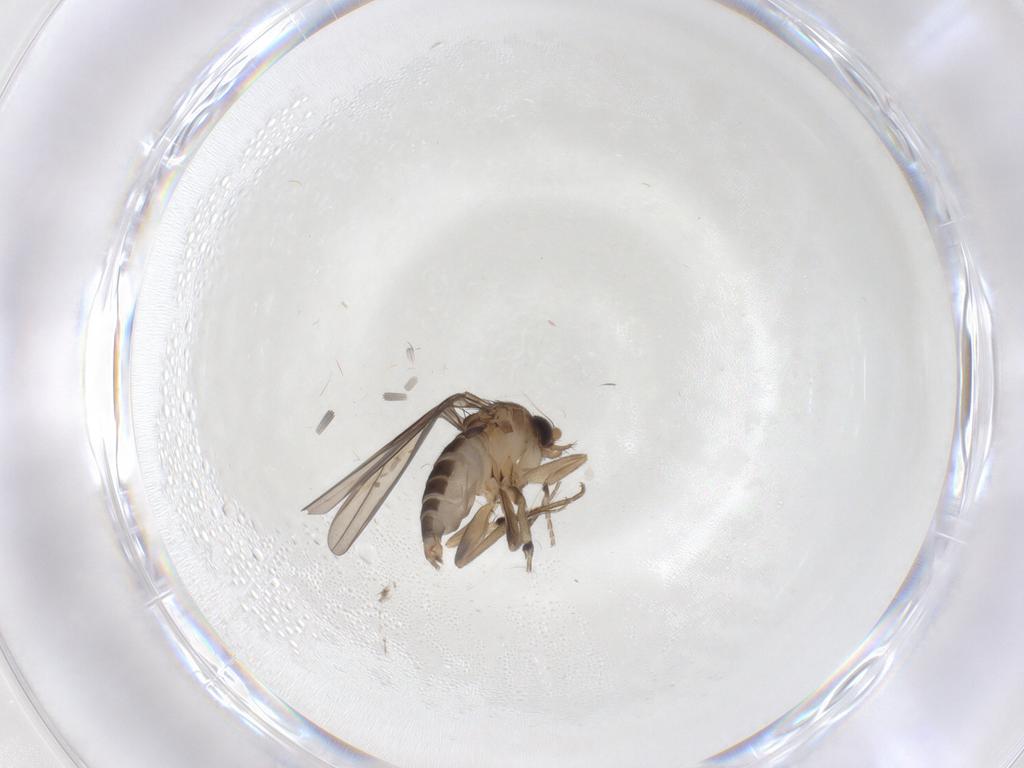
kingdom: Animalia
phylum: Arthropoda
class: Insecta
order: Diptera
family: Phoridae
